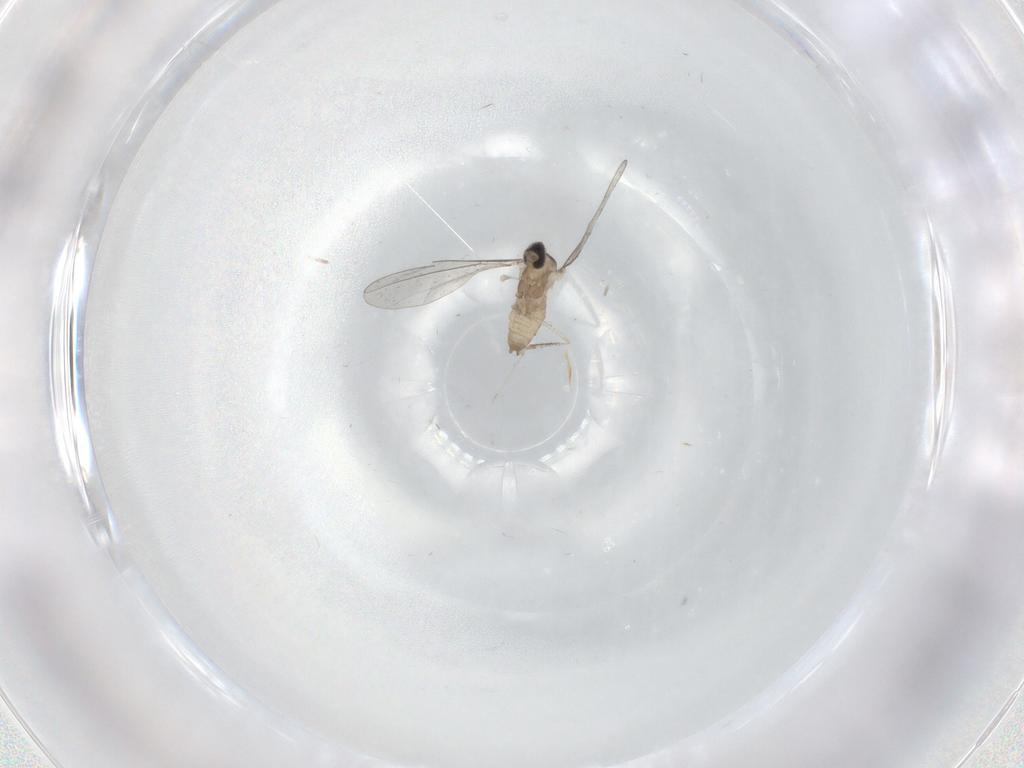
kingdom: Animalia
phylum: Arthropoda
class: Insecta
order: Diptera
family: Cecidomyiidae
